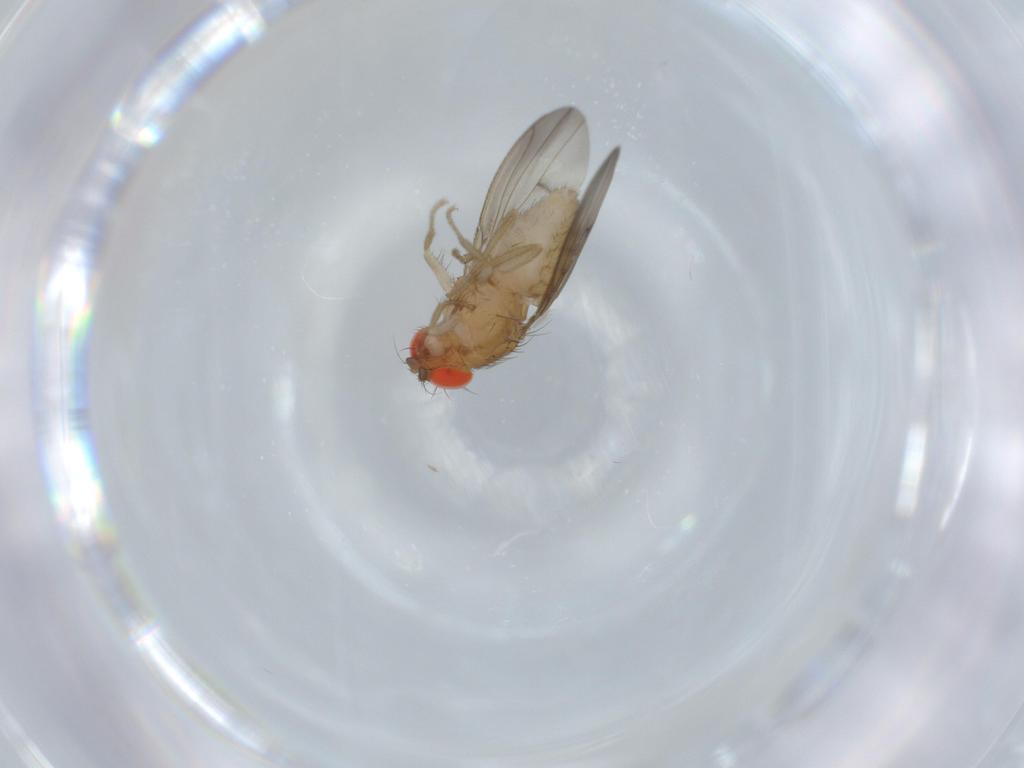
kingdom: Animalia
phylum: Arthropoda
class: Insecta
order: Diptera
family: Drosophilidae
